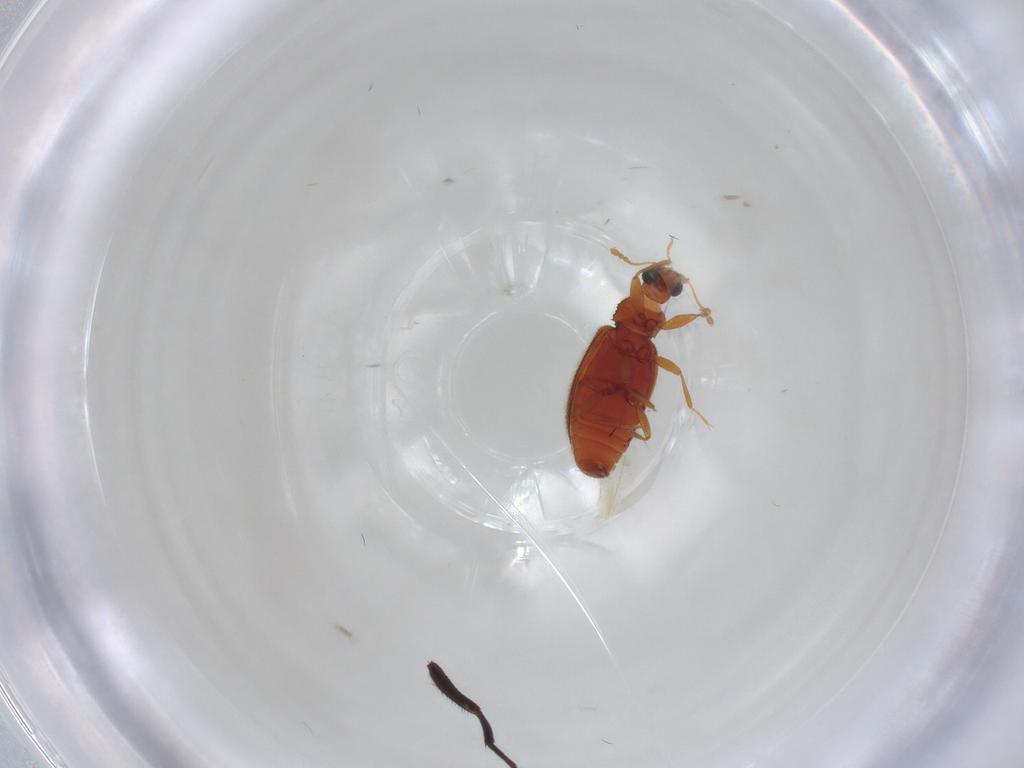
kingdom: Animalia
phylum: Arthropoda
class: Insecta
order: Coleoptera
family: Latridiidae
